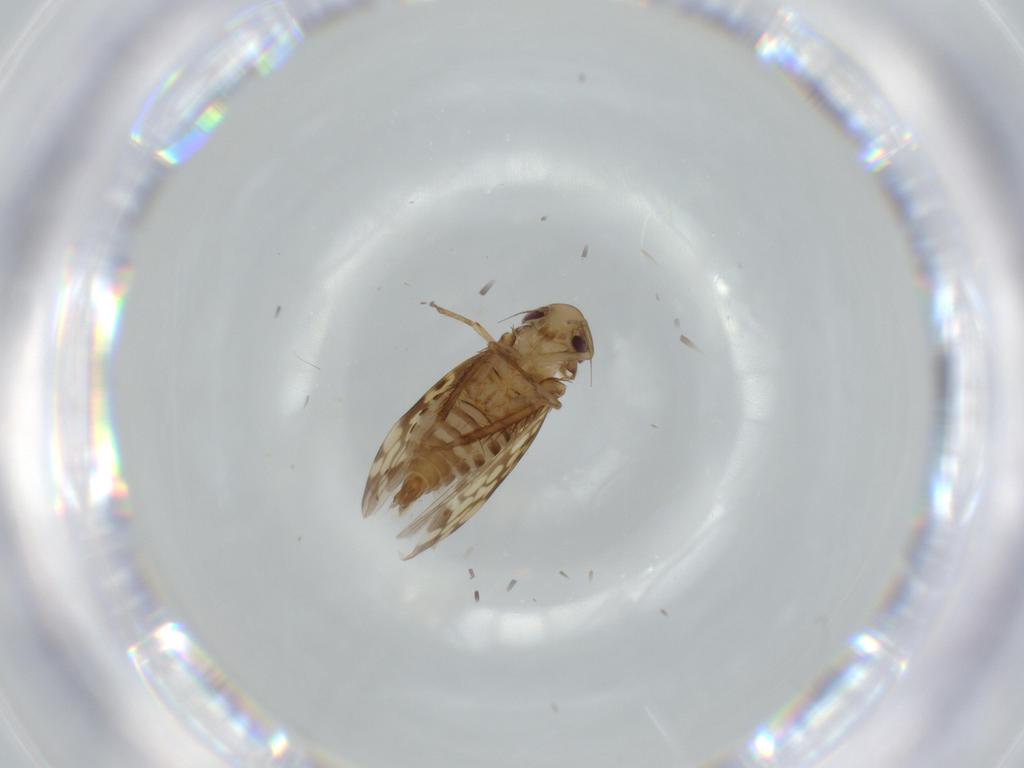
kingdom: Animalia
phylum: Arthropoda
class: Insecta
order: Hemiptera
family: Cicadellidae
